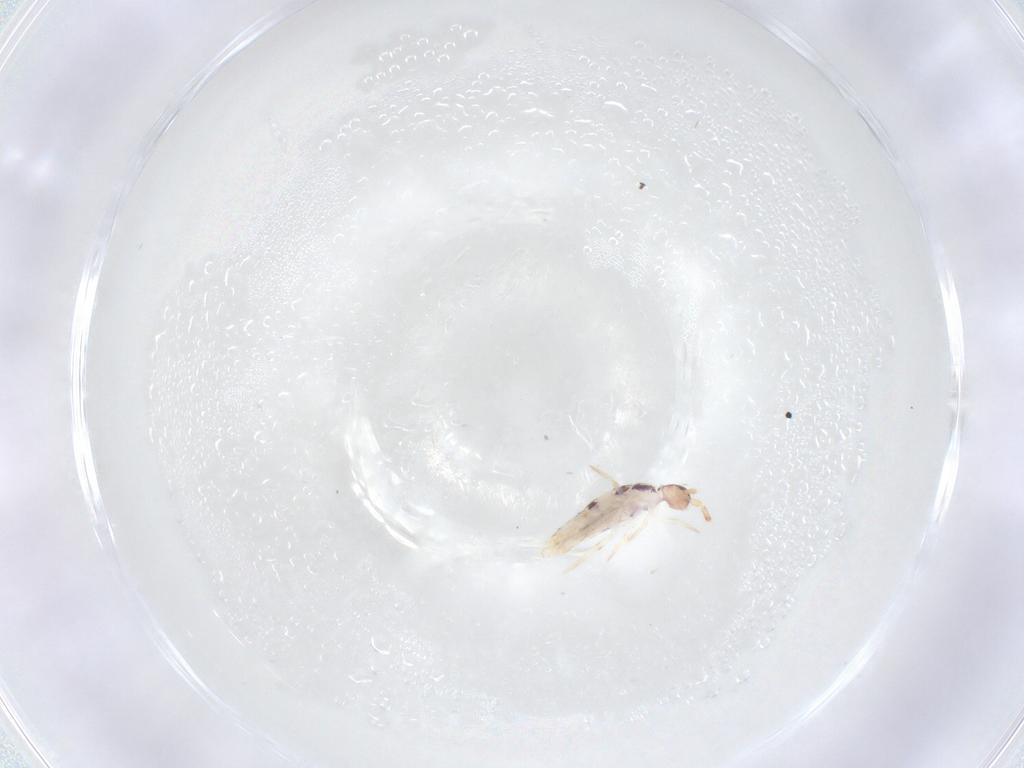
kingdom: Animalia
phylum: Arthropoda
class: Collembola
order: Entomobryomorpha
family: Entomobryidae
